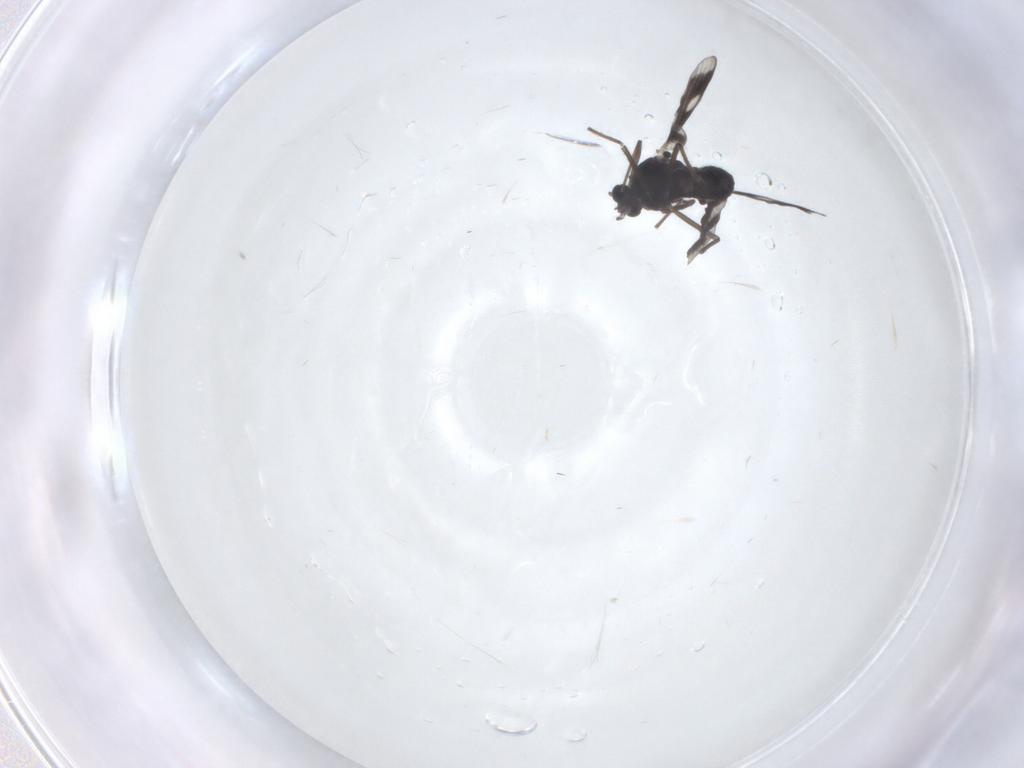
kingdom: Animalia
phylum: Arthropoda
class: Insecta
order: Diptera
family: Chironomidae
